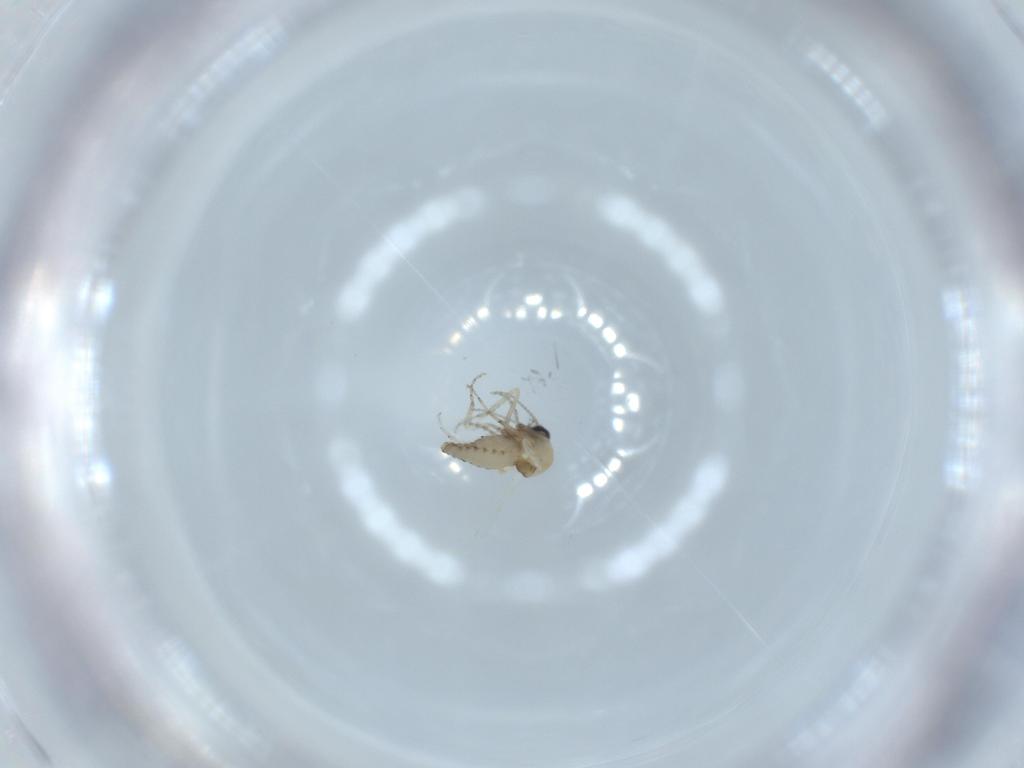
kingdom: Animalia
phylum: Arthropoda
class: Insecta
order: Diptera
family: Ceratopogonidae
